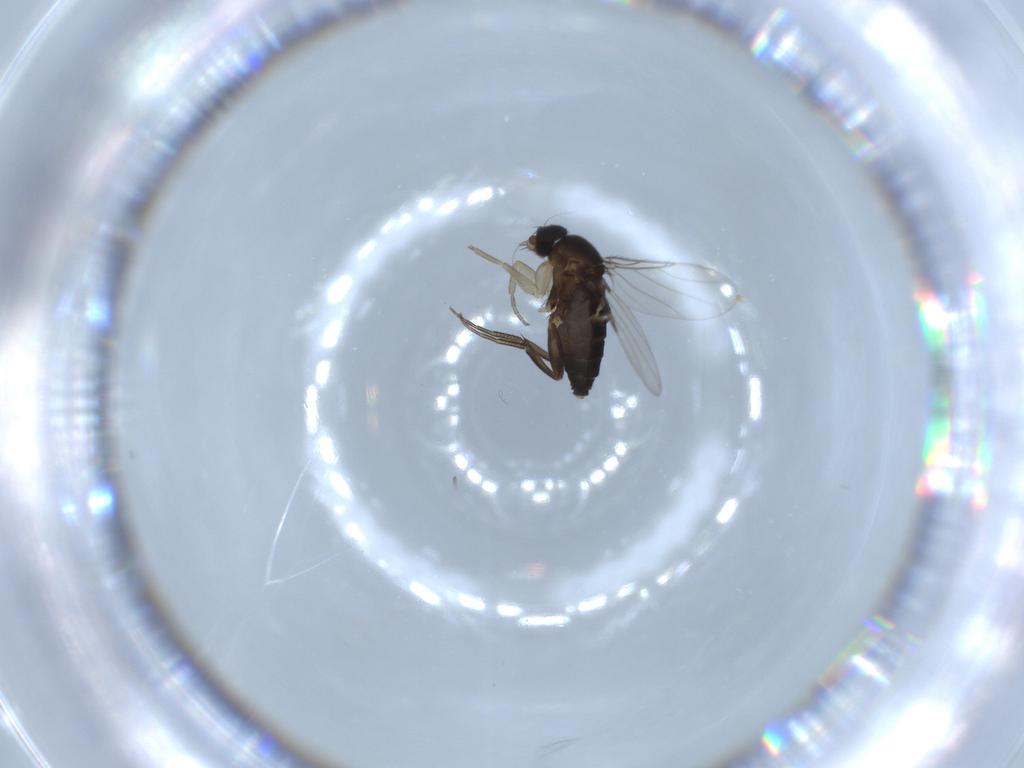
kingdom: Animalia
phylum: Arthropoda
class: Insecta
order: Diptera
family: Phoridae
